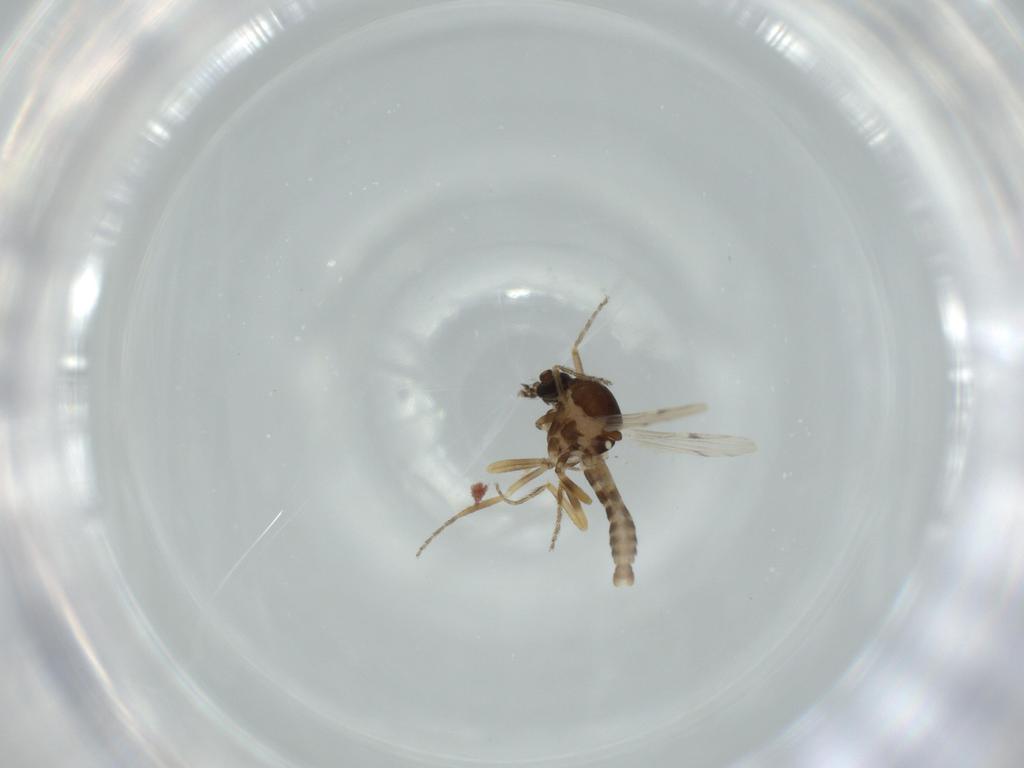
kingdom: Animalia
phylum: Arthropoda
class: Insecta
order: Diptera
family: Ceratopogonidae
